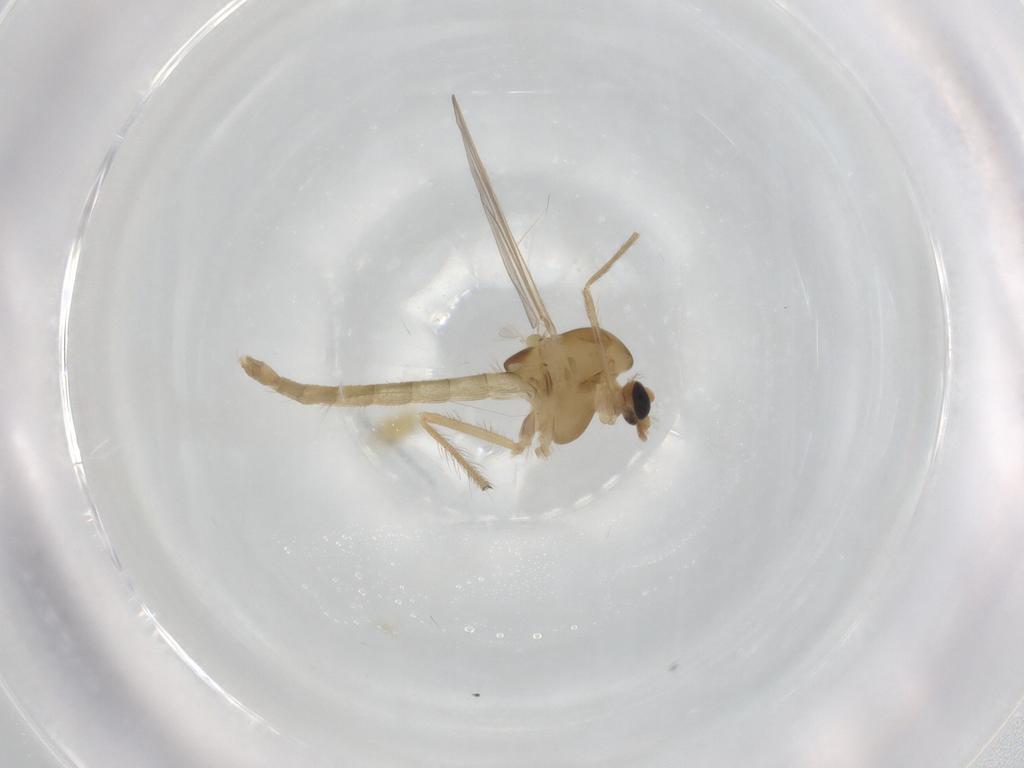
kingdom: Animalia
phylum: Arthropoda
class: Insecta
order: Diptera
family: Chironomidae
